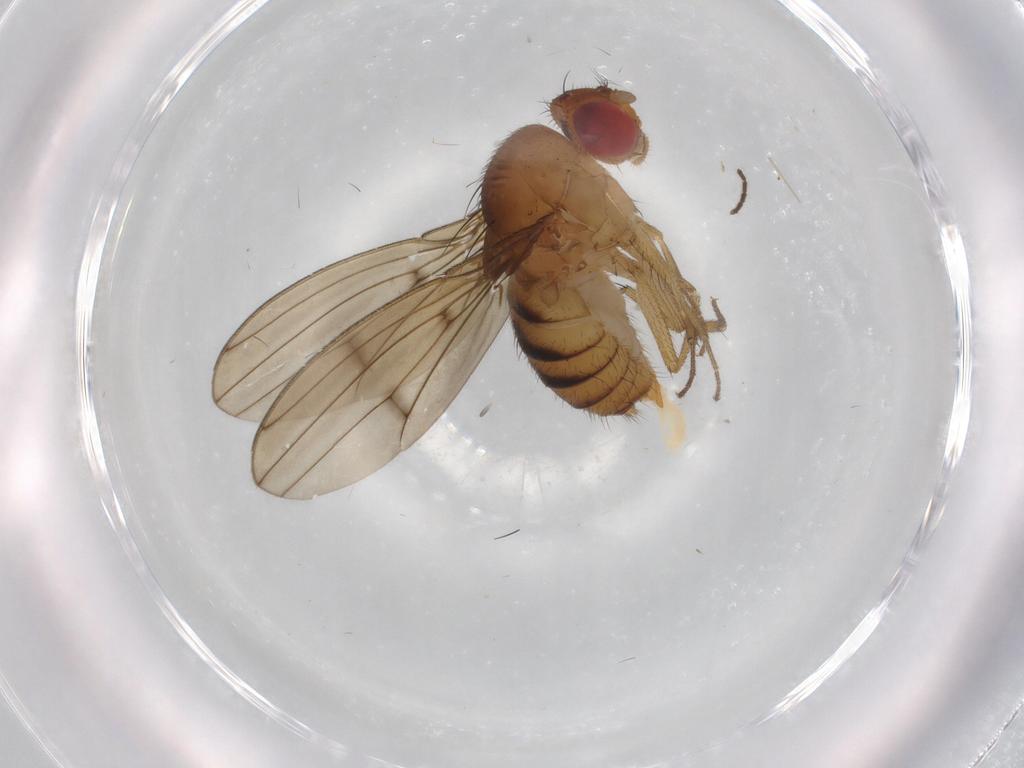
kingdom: Animalia
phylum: Arthropoda
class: Insecta
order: Diptera
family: Drosophilidae
